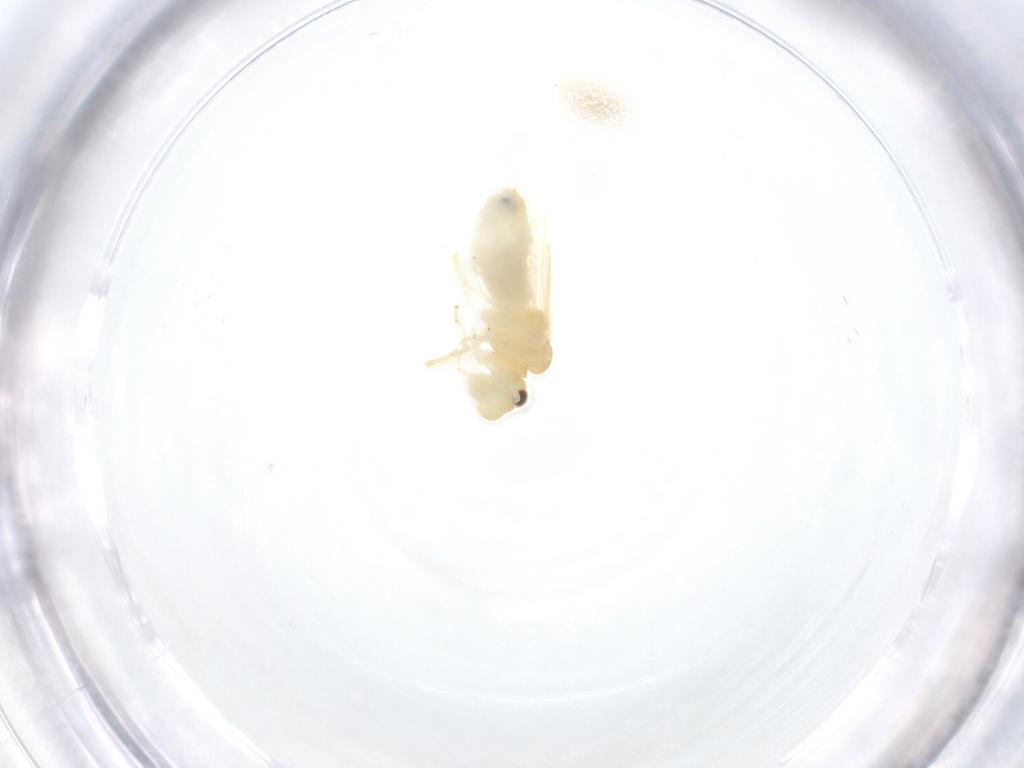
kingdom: Animalia
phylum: Arthropoda
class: Insecta
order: Psocodea
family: Caeciliusidae
